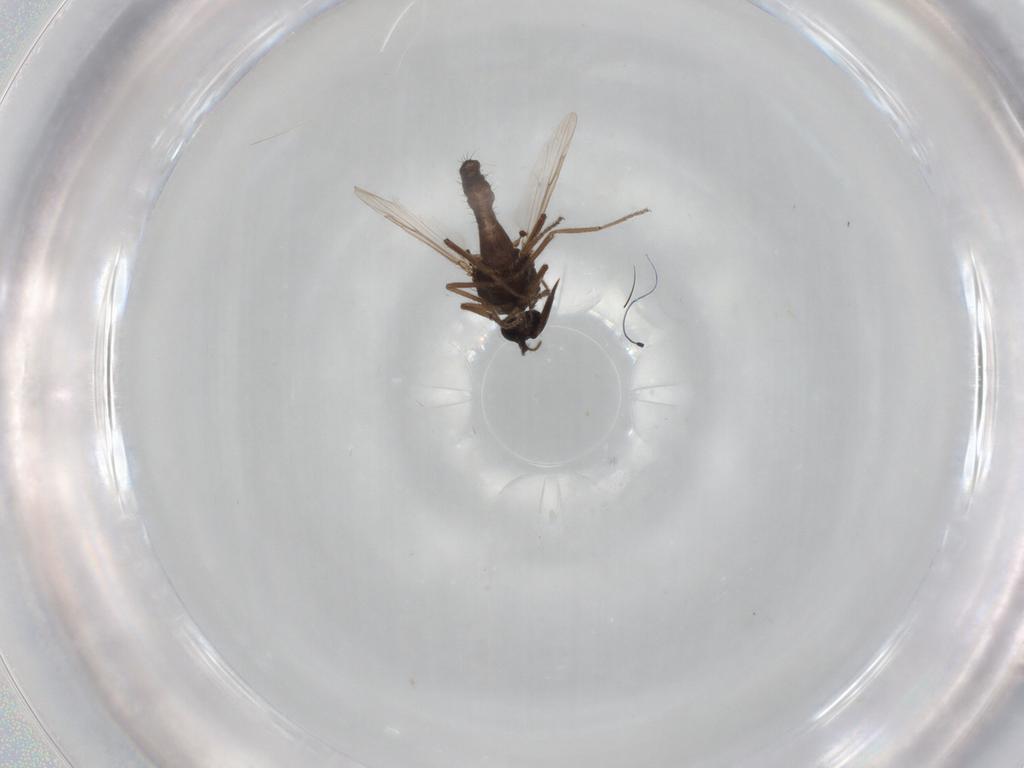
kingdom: Animalia
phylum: Arthropoda
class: Insecta
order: Diptera
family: Ceratopogonidae
